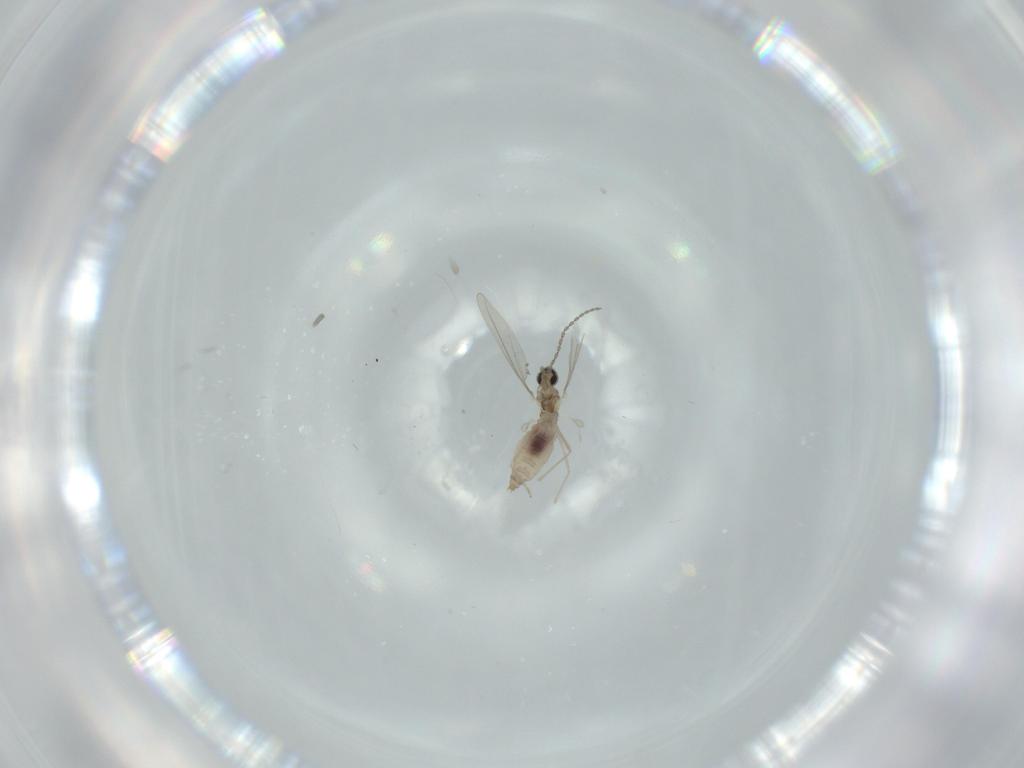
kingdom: Animalia
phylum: Arthropoda
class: Insecta
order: Diptera
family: Cecidomyiidae
